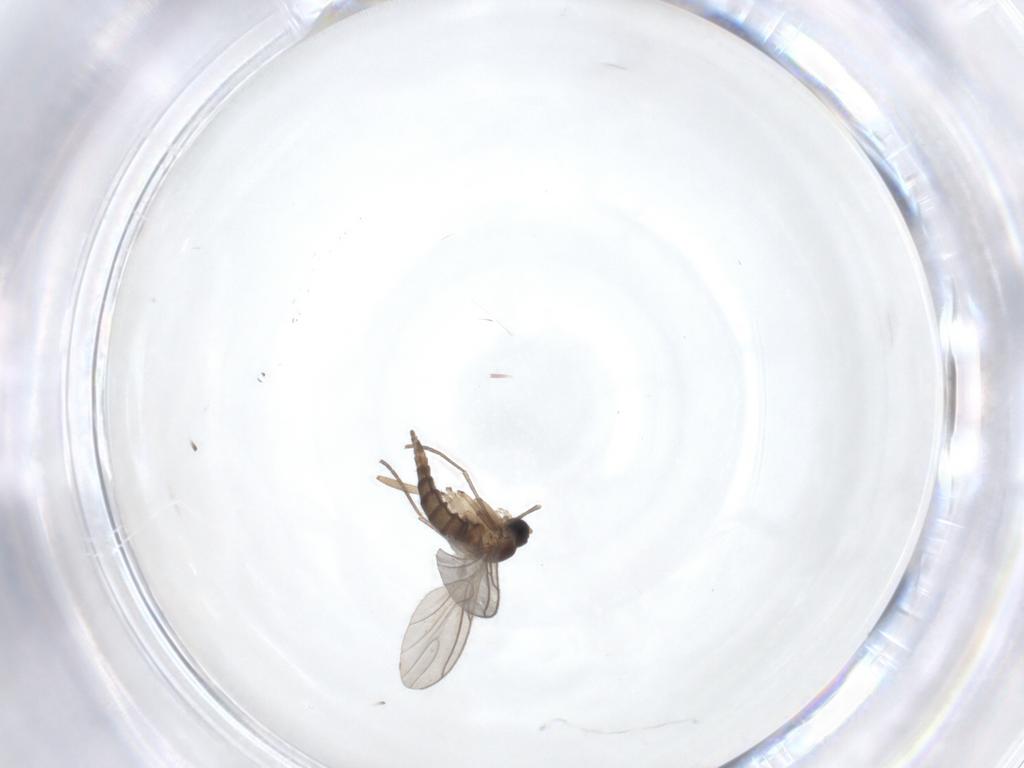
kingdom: Animalia
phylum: Arthropoda
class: Insecta
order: Diptera
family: Sciaridae
